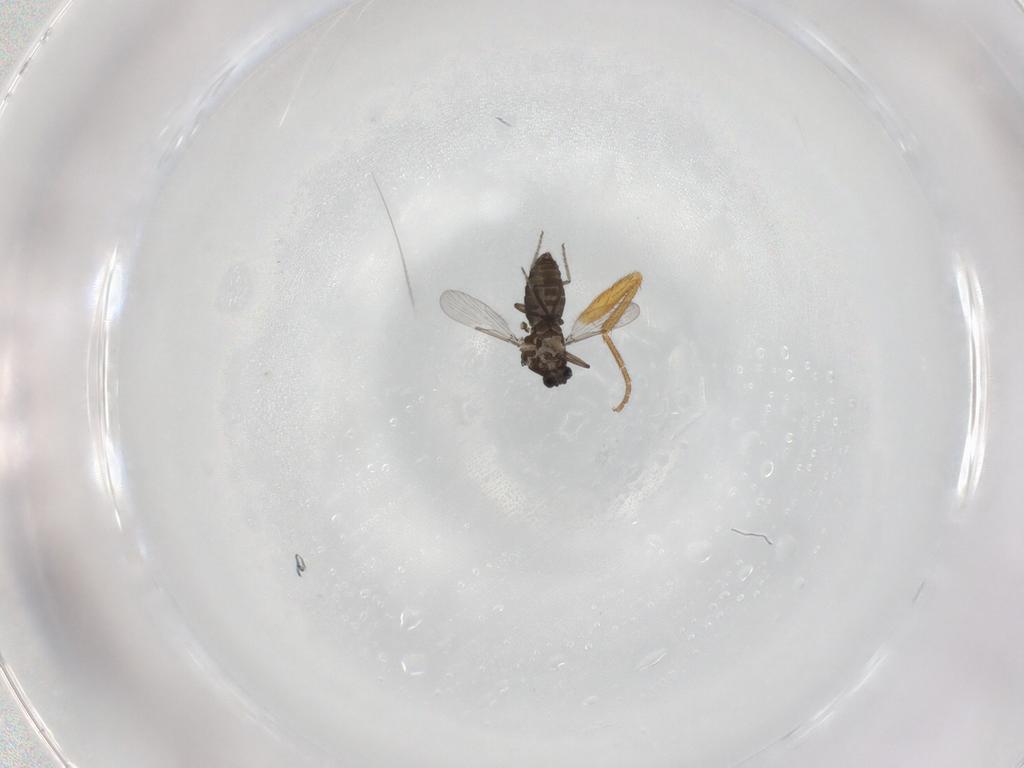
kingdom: Animalia
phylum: Arthropoda
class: Insecta
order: Diptera
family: Ceratopogonidae
